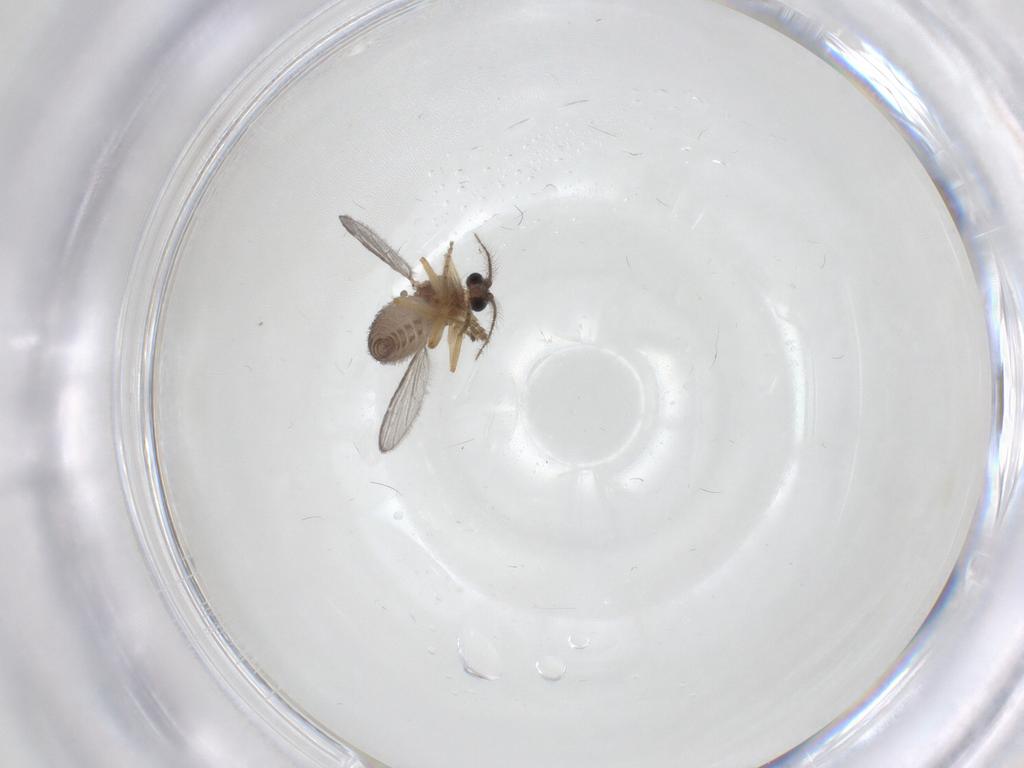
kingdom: Animalia
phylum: Arthropoda
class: Insecta
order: Diptera
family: Ceratopogonidae
